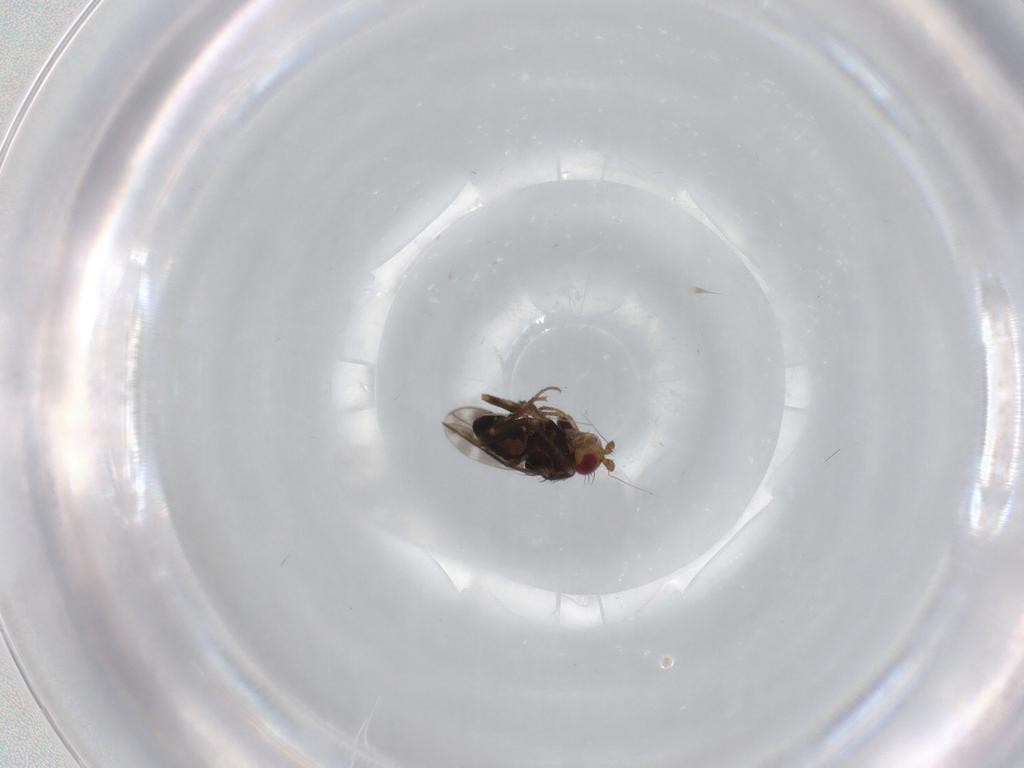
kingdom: Animalia
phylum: Arthropoda
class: Insecta
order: Diptera
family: Sphaeroceridae
